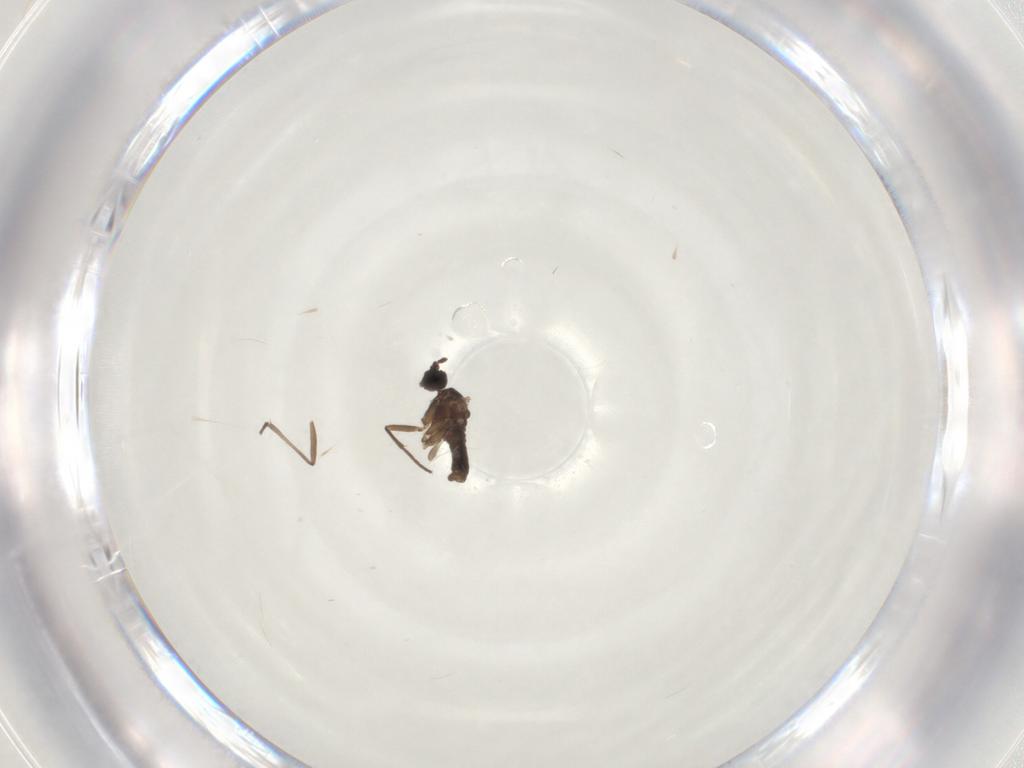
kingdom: Animalia
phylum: Arthropoda
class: Insecta
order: Diptera
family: Sciaridae
